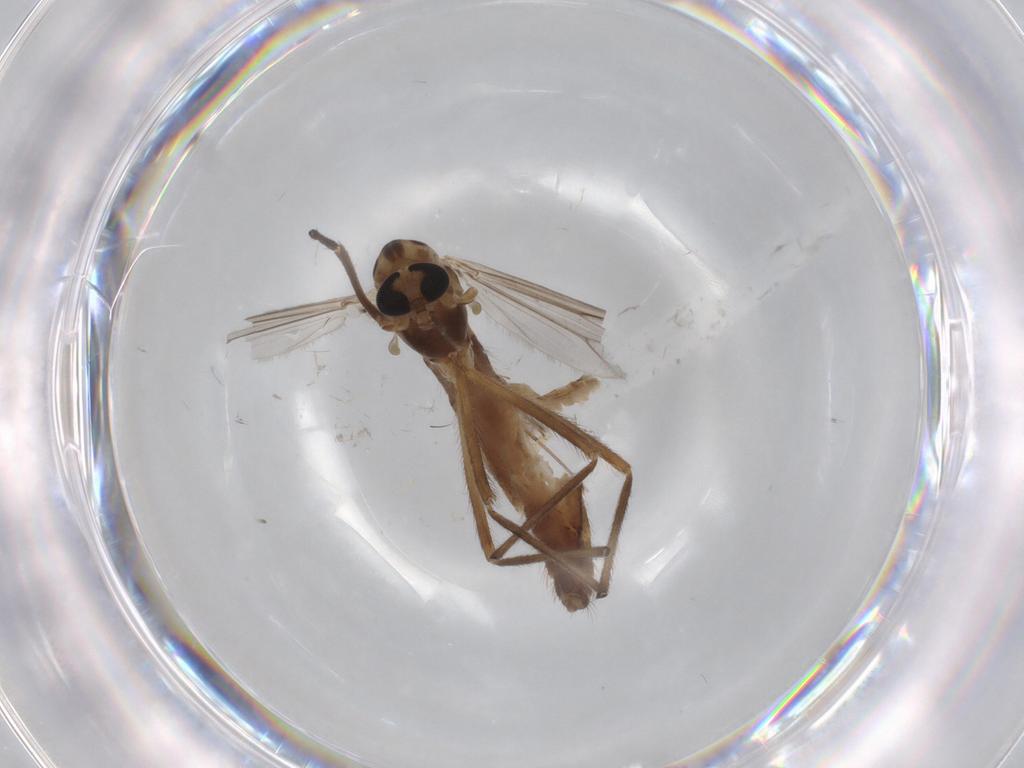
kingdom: Animalia
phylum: Arthropoda
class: Insecta
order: Diptera
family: Chironomidae
